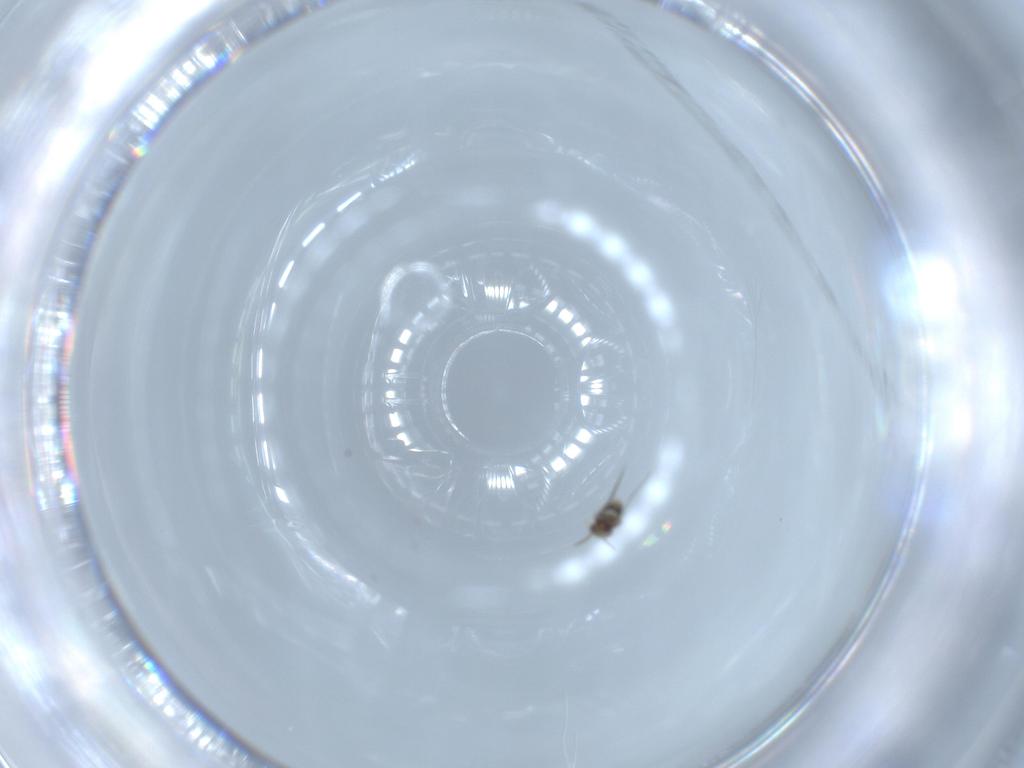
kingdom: Animalia
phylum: Arthropoda
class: Insecta
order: Hymenoptera
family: Aphelinidae
